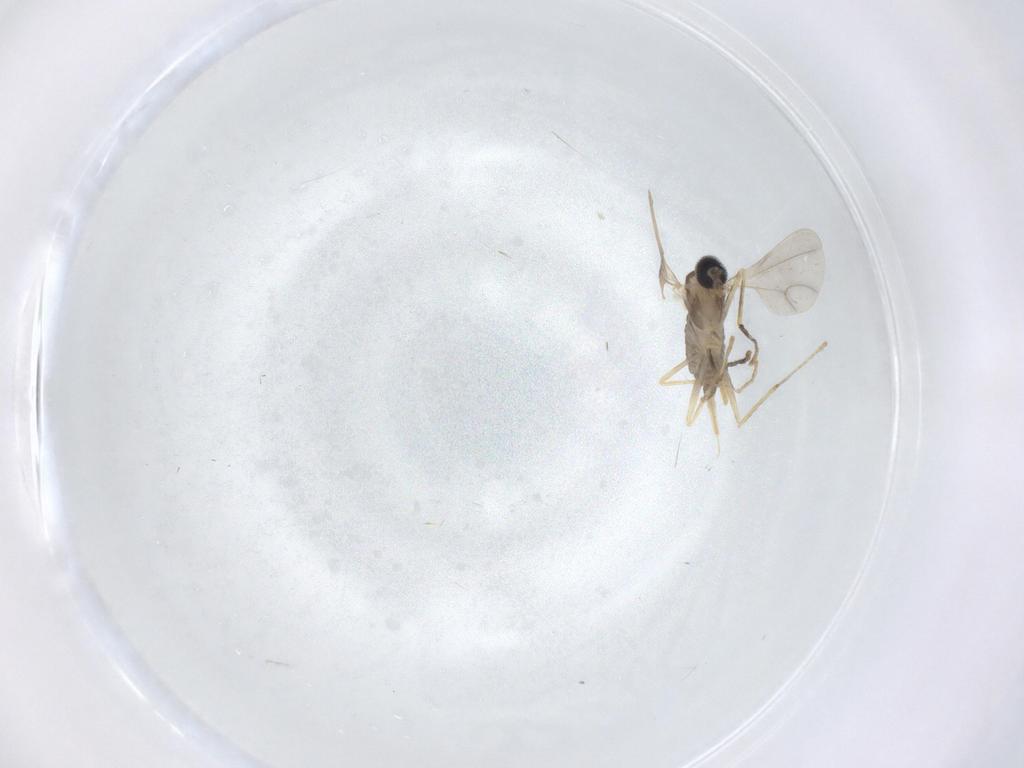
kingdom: Animalia
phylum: Arthropoda
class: Insecta
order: Diptera
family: Cecidomyiidae
